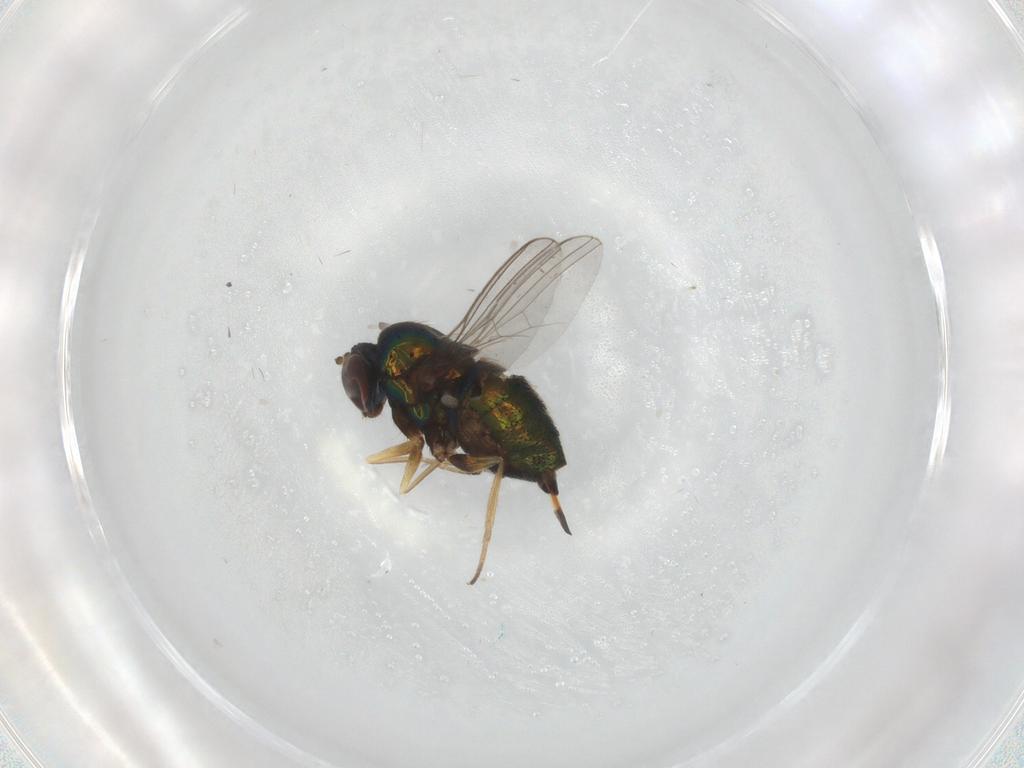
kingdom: Animalia
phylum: Arthropoda
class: Insecta
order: Diptera
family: Dolichopodidae
